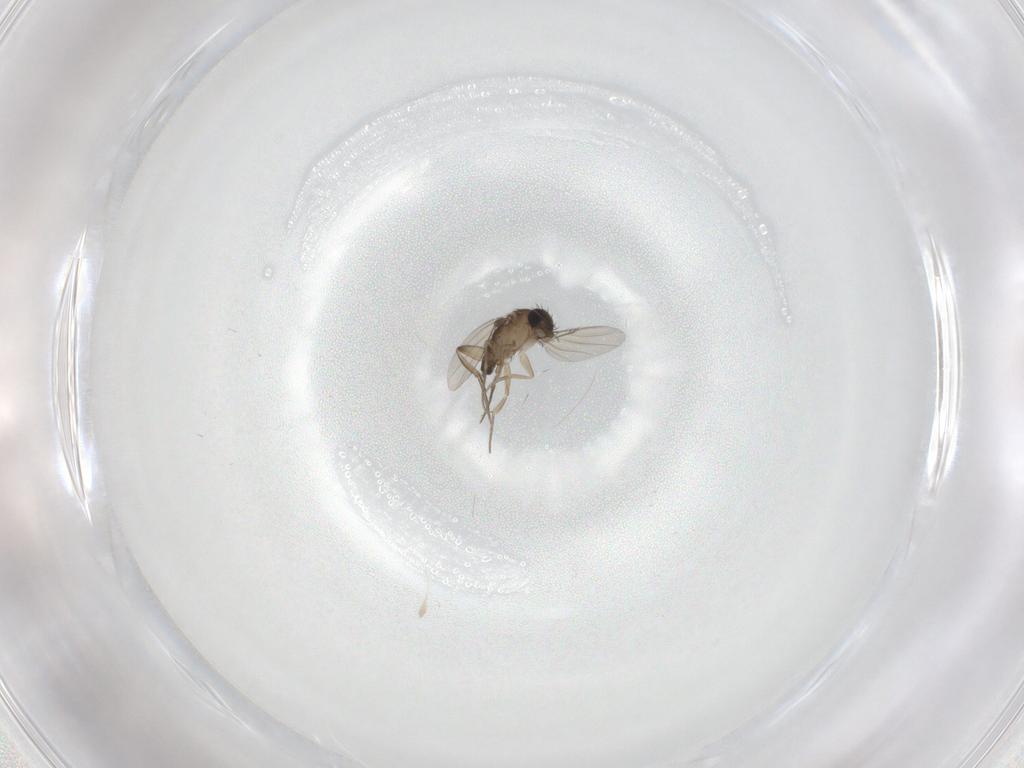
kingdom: Animalia
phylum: Arthropoda
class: Insecta
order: Diptera
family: Phoridae
